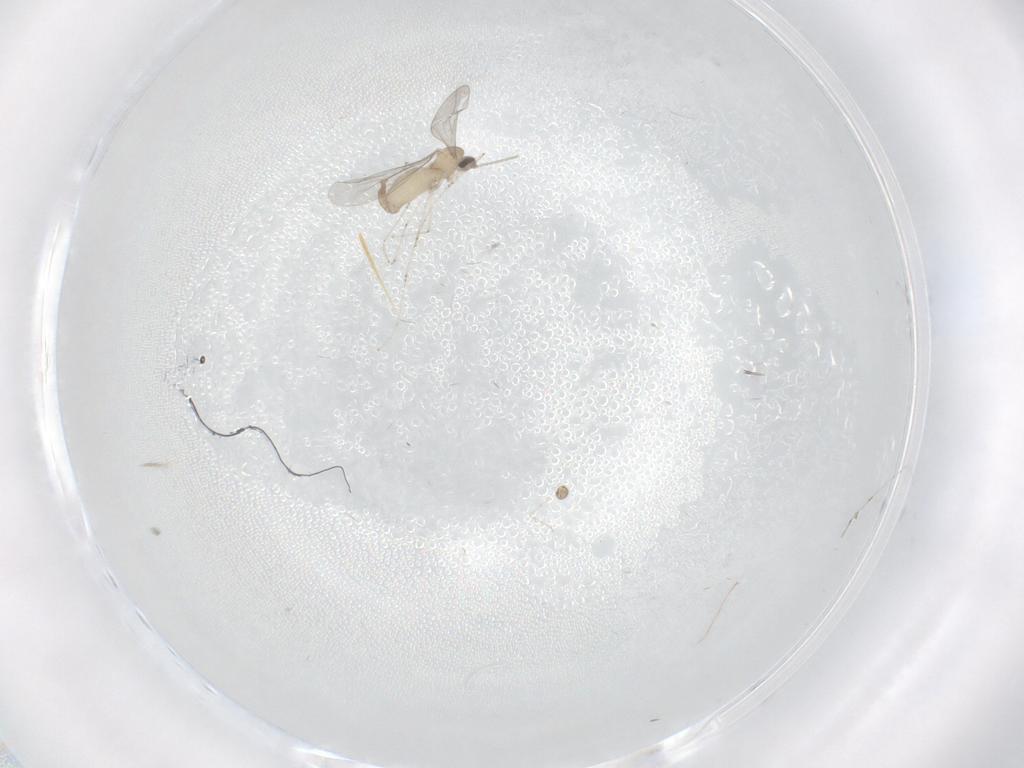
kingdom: Animalia
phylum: Arthropoda
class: Insecta
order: Diptera
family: Cecidomyiidae
